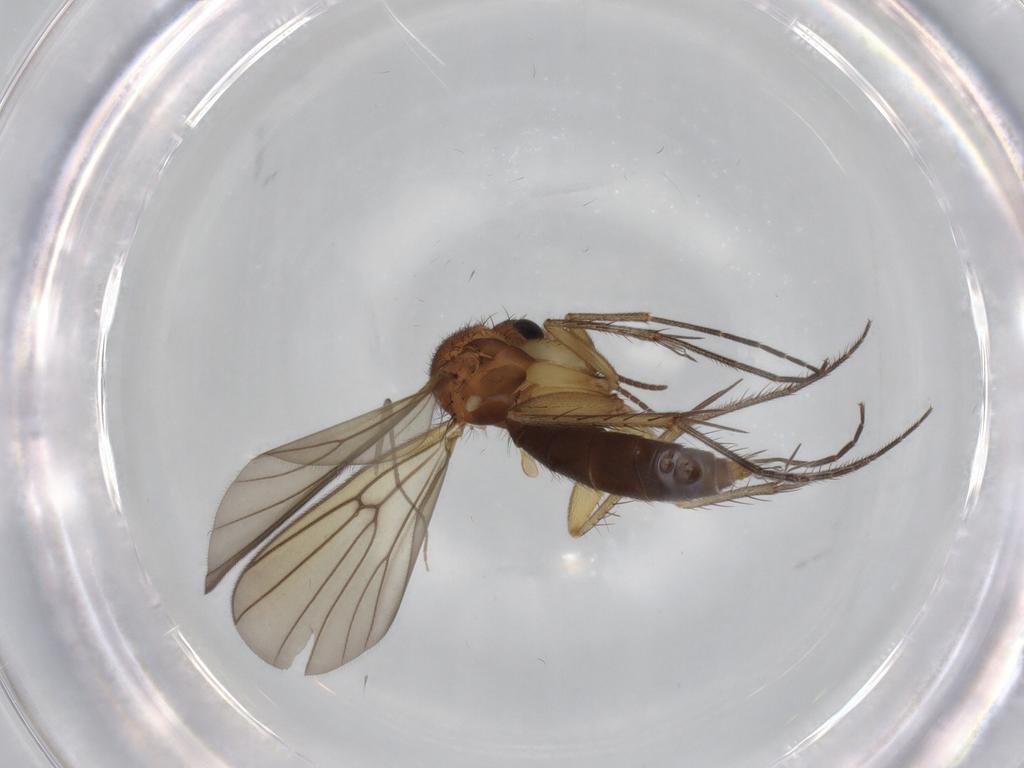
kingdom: Animalia
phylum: Arthropoda
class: Insecta
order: Diptera
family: Mycetophilidae
